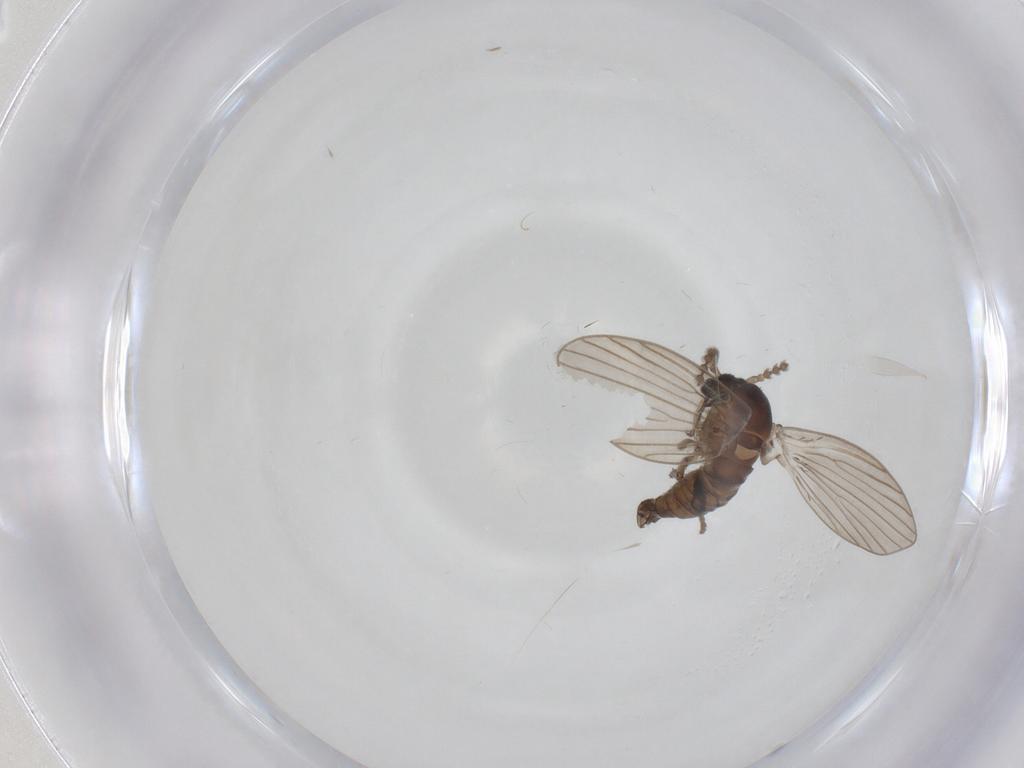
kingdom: Animalia
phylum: Arthropoda
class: Insecta
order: Diptera
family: Psychodidae
